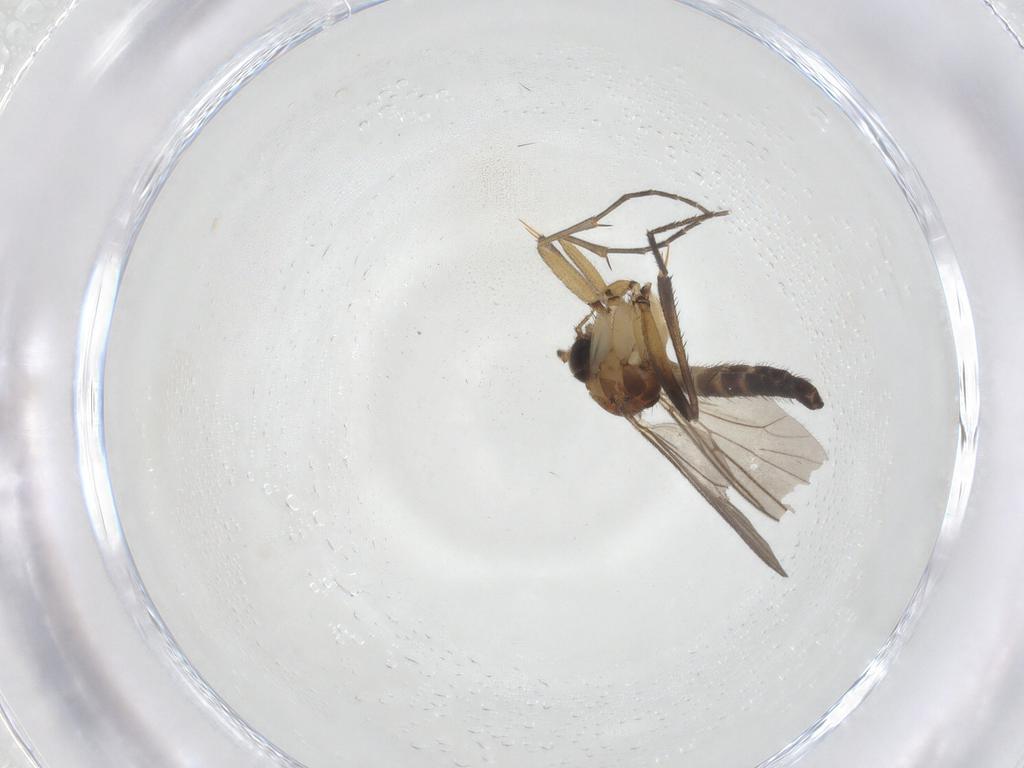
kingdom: Animalia
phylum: Arthropoda
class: Insecta
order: Diptera
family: Mycetophilidae
